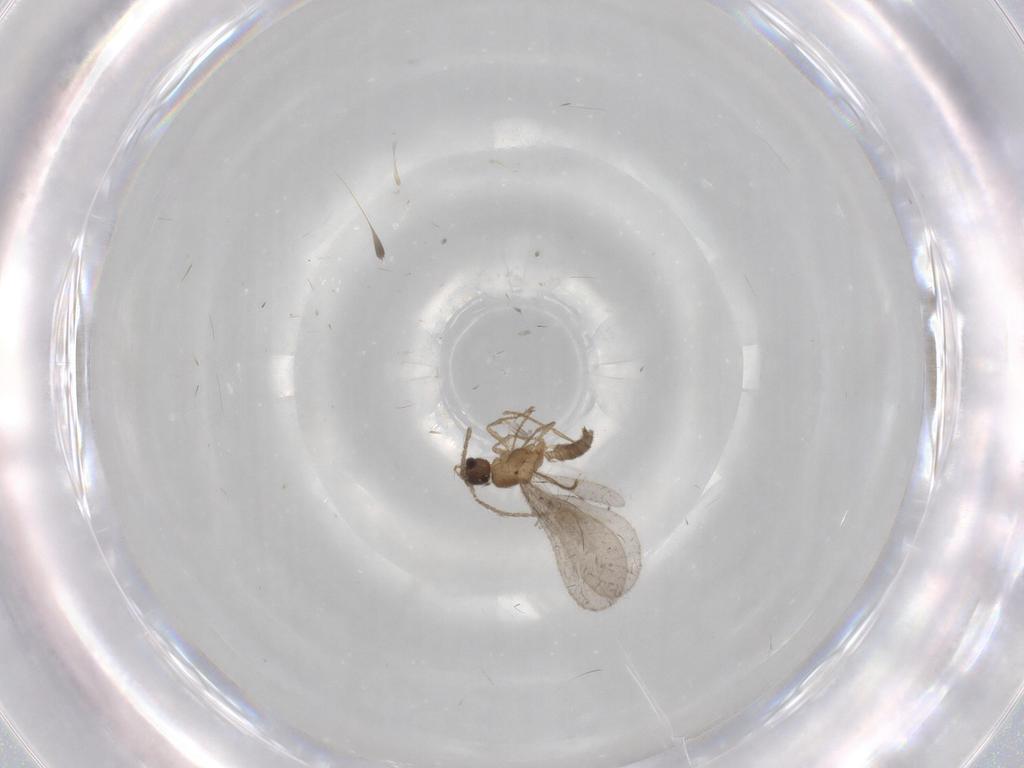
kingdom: Animalia
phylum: Arthropoda
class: Insecta
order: Hymenoptera
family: Formicidae
